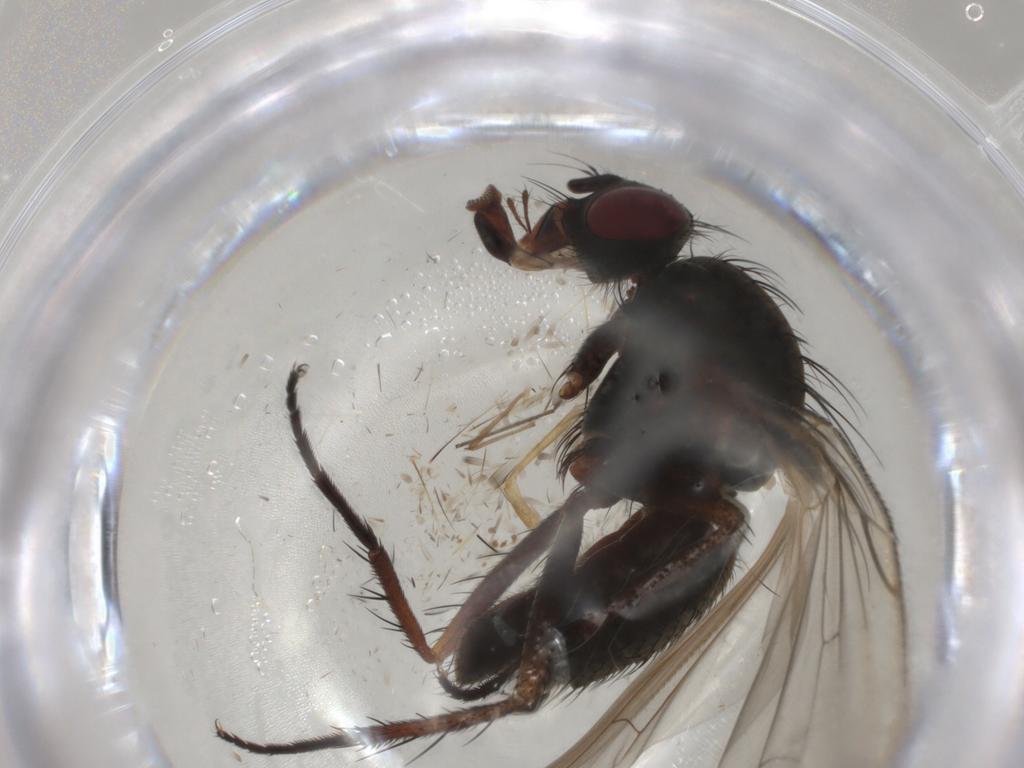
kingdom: Animalia
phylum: Arthropoda
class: Insecta
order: Diptera
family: Anthomyiidae
